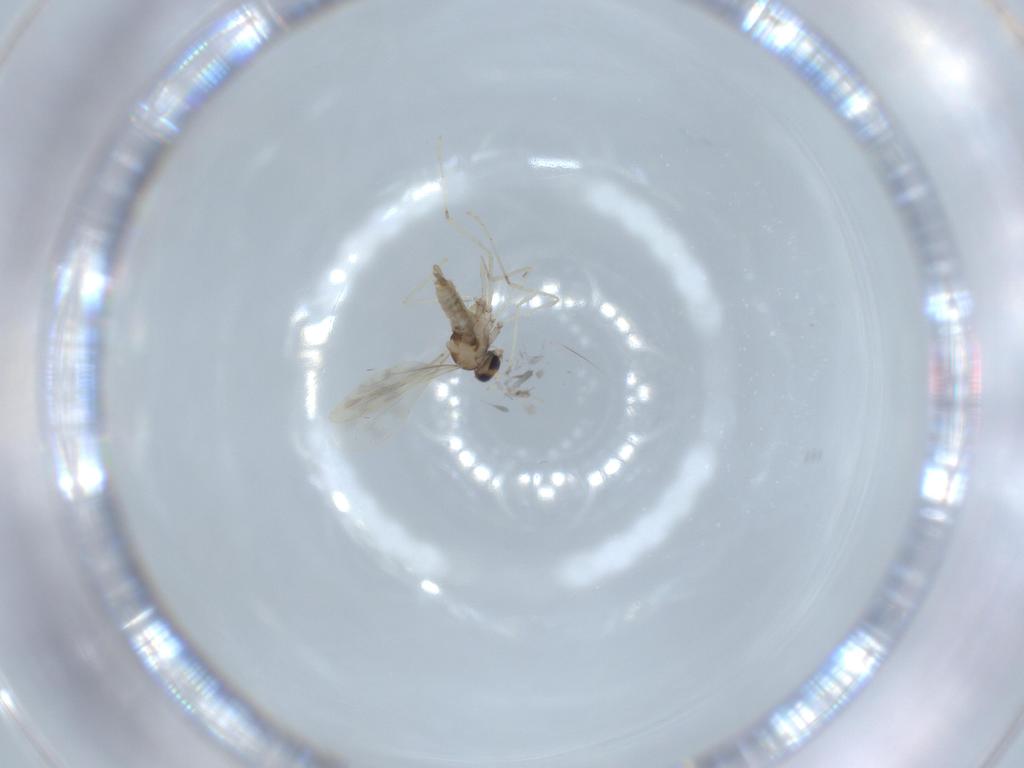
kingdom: Animalia
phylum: Arthropoda
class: Insecta
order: Diptera
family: Cecidomyiidae
